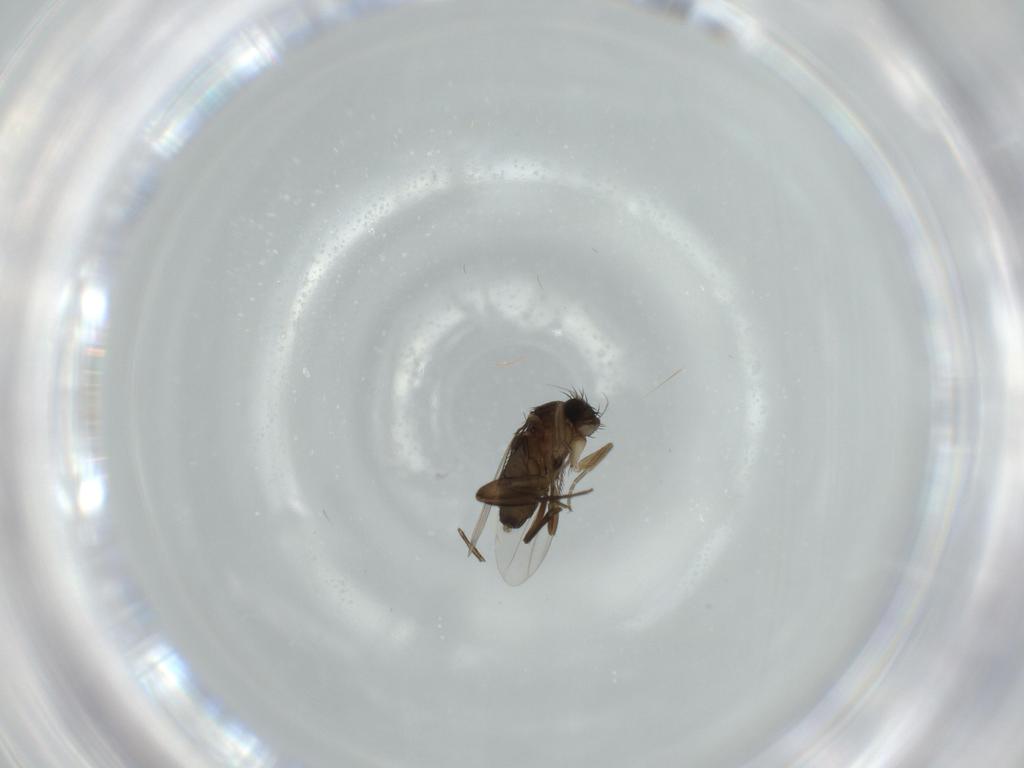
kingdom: Animalia
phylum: Arthropoda
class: Insecta
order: Diptera
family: Phoridae
